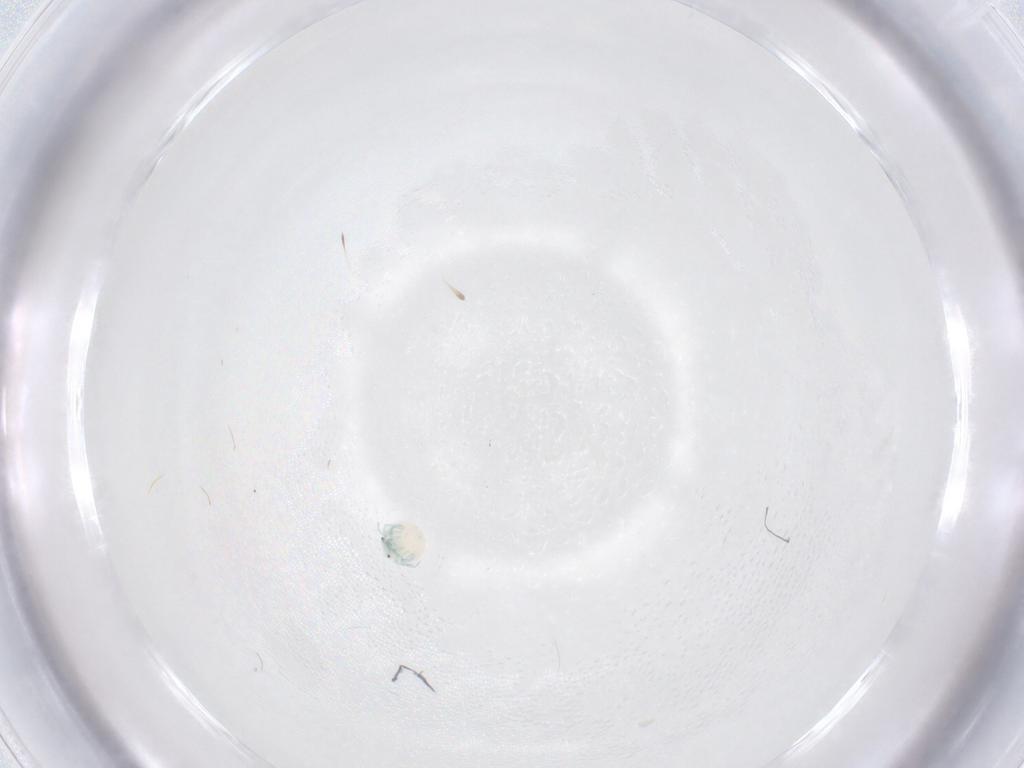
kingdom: Animalia
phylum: Arthropoda
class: Arachnida
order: Trombidiformes
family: Arrenuridae
